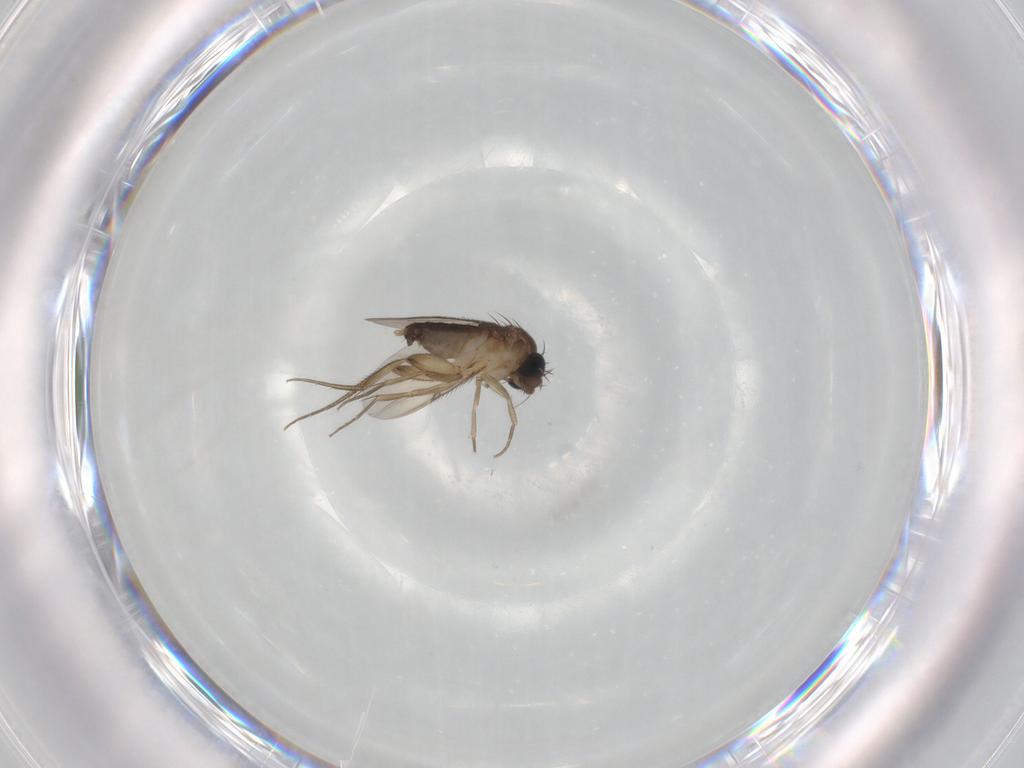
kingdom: Animalia
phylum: Arthropoda
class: Insecta
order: Diptera
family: Phoridae
